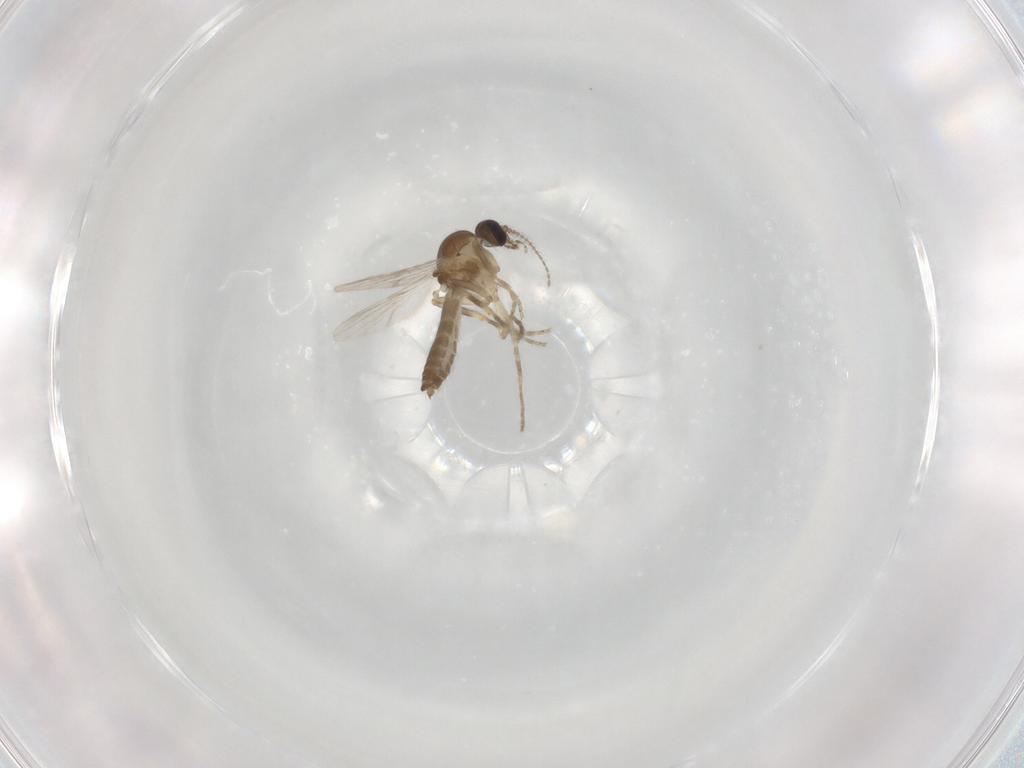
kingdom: Animalia
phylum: Arthropoda
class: Insecta
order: Diptera
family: Ceratopogonidae
